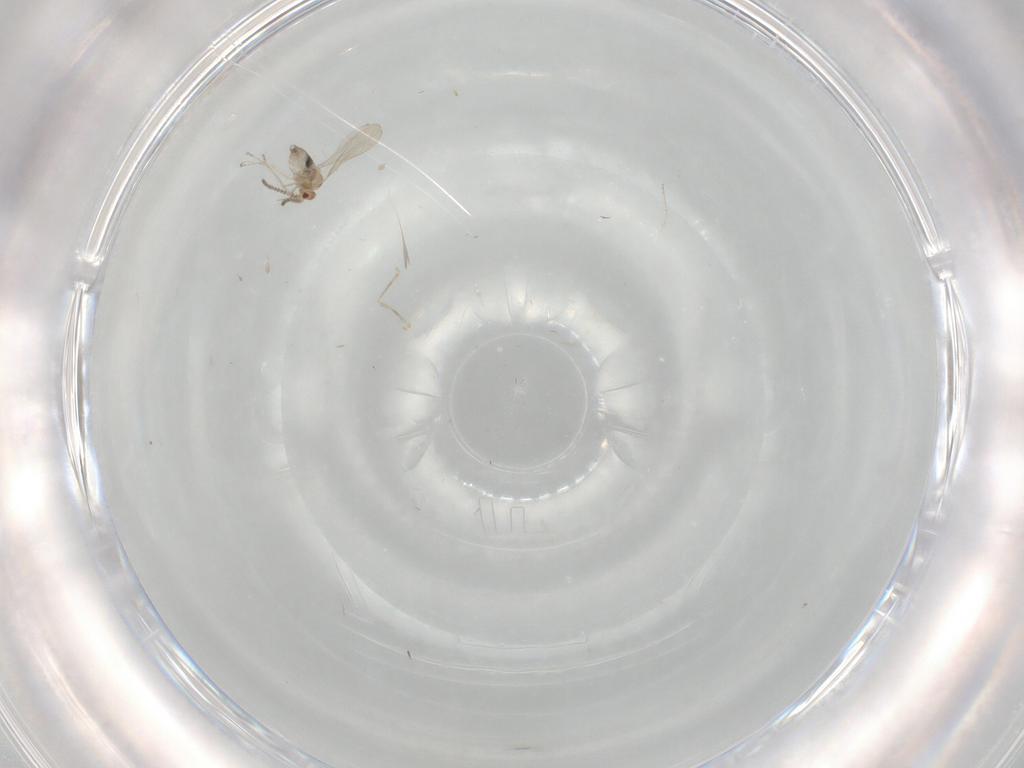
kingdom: Animalia
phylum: Arthropoda
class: Insecta
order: Diptera
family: Cecidomyiidae
